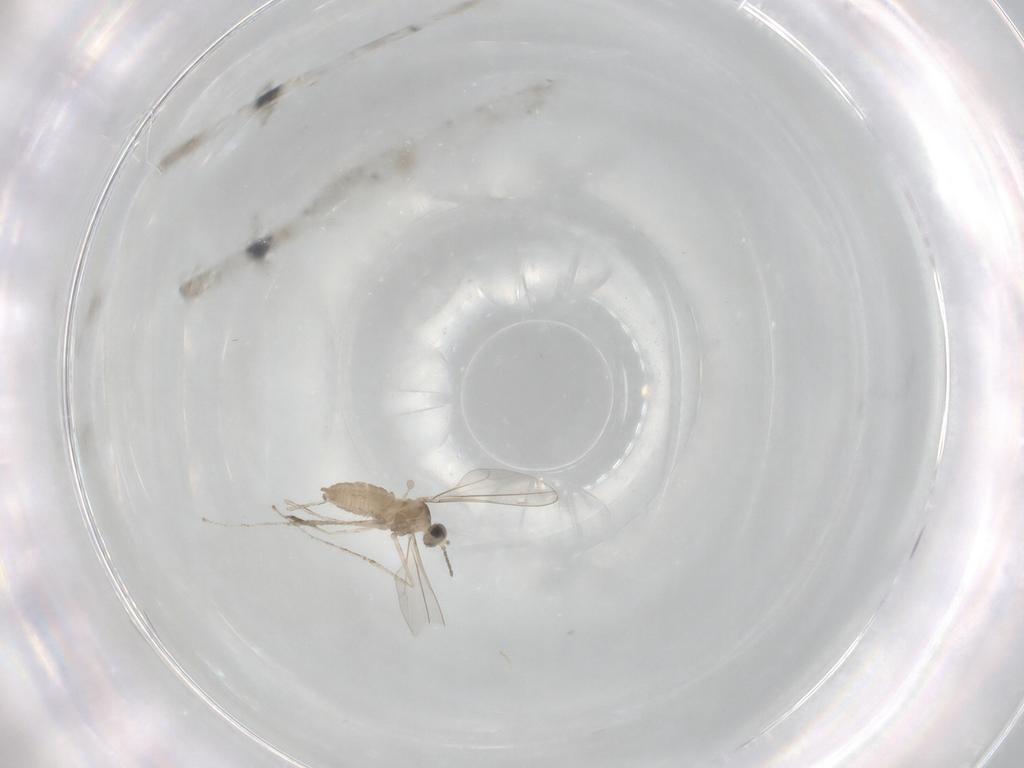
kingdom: Animalia
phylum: Arthropoda
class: Insecta
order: Diptera
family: Cecidomyiidae
